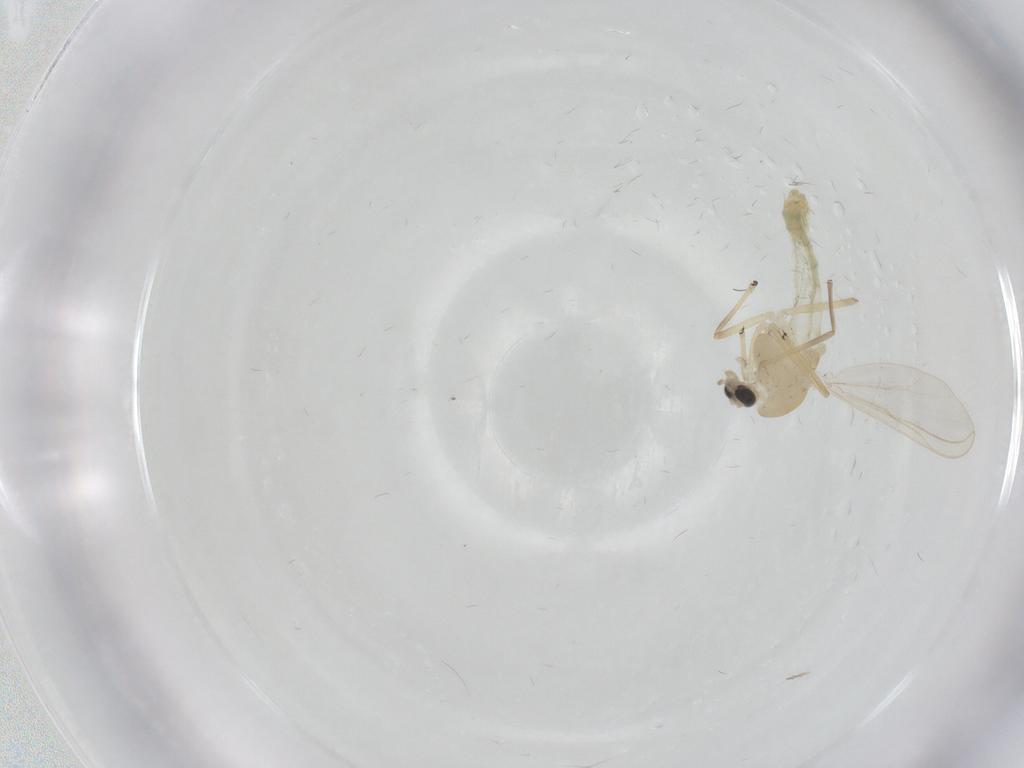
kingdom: Animalia
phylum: Arthropoda
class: Insecta
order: Diptera
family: Chironomidae
